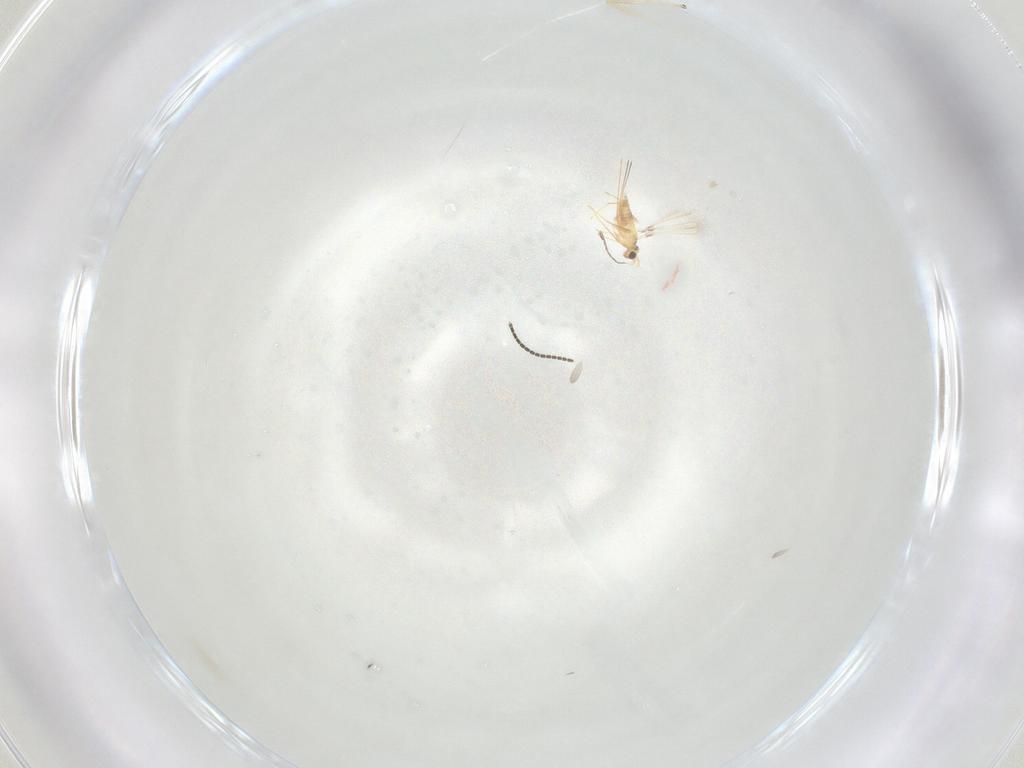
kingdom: Animalia
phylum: Arthropoda
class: Insecta
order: Hymenoptera
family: Mymaridae
